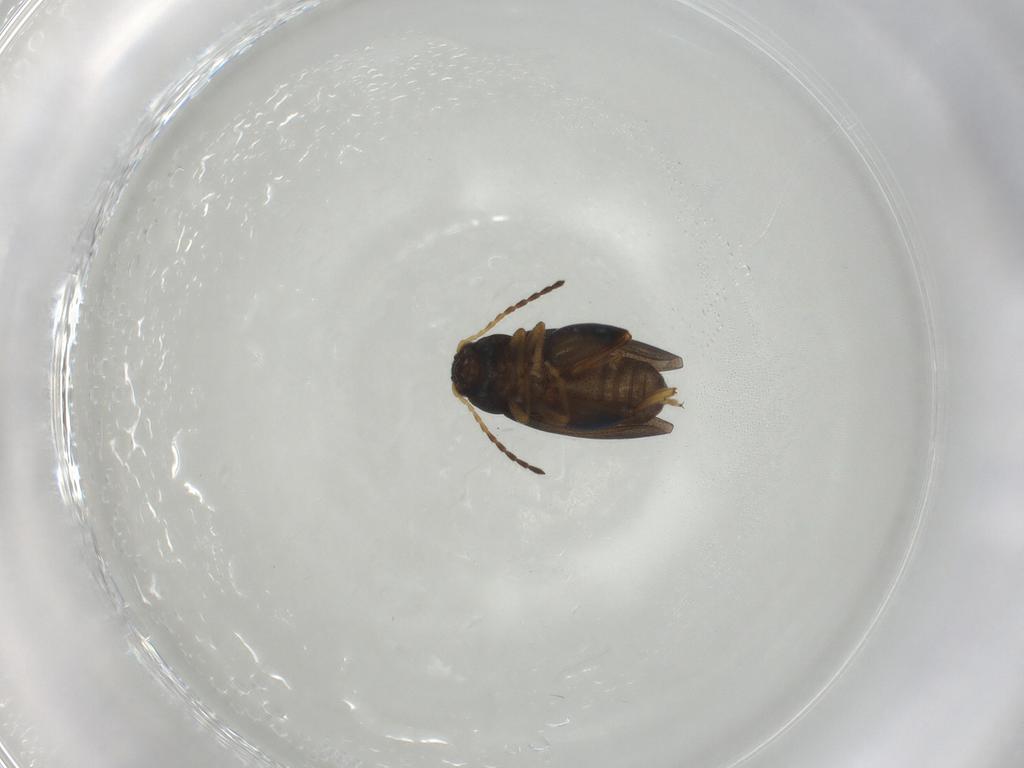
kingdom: Animalia
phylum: Arthropoda
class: Insecta
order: Coleoptera
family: Chrysomelidae
